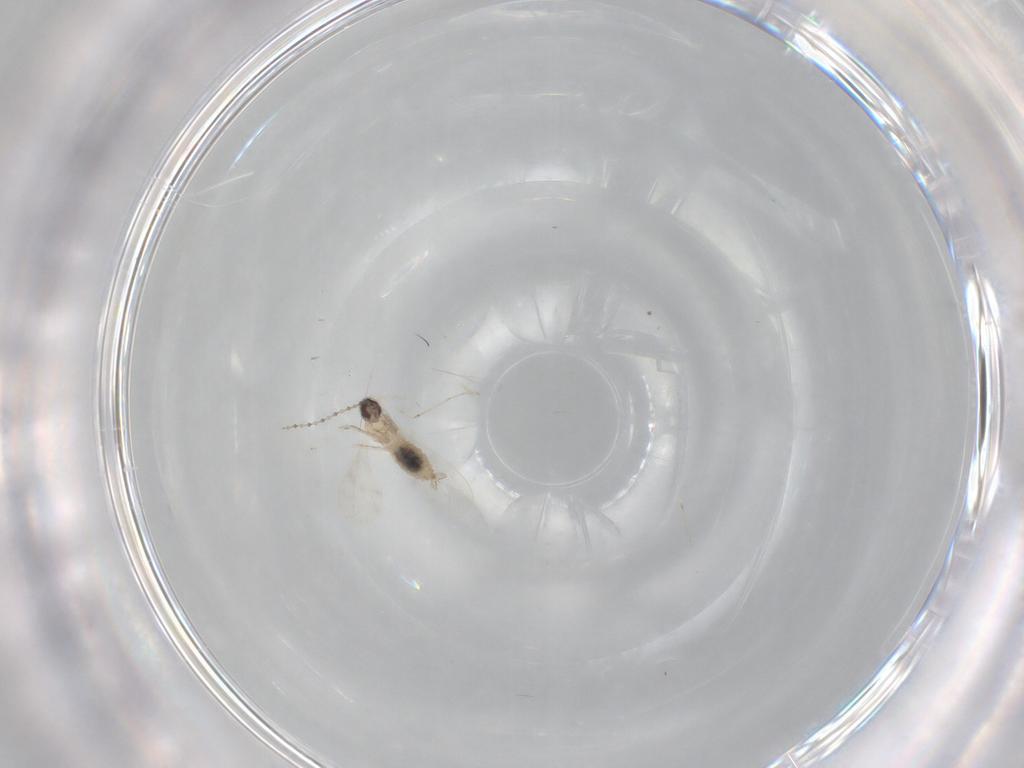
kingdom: Animalia
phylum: Arthropoda
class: Insecta
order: Diptera
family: Cecidomyiidae
